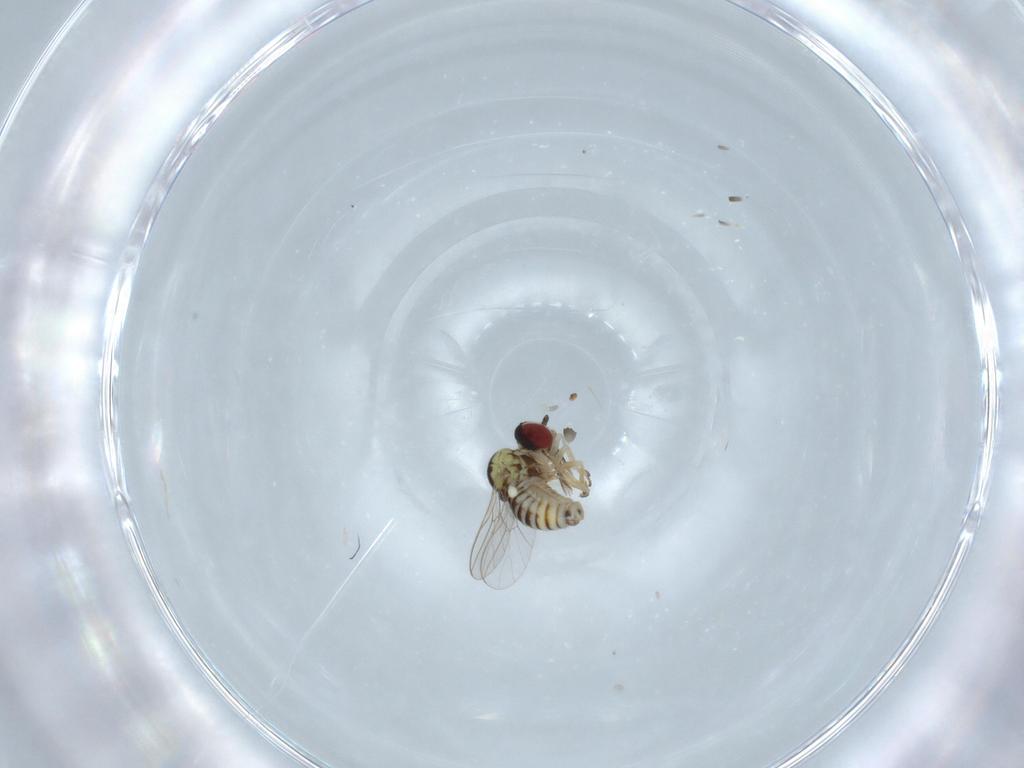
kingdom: Animalia
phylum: Arthropoda
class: Insecta
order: Diptera
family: Bombyliidae
